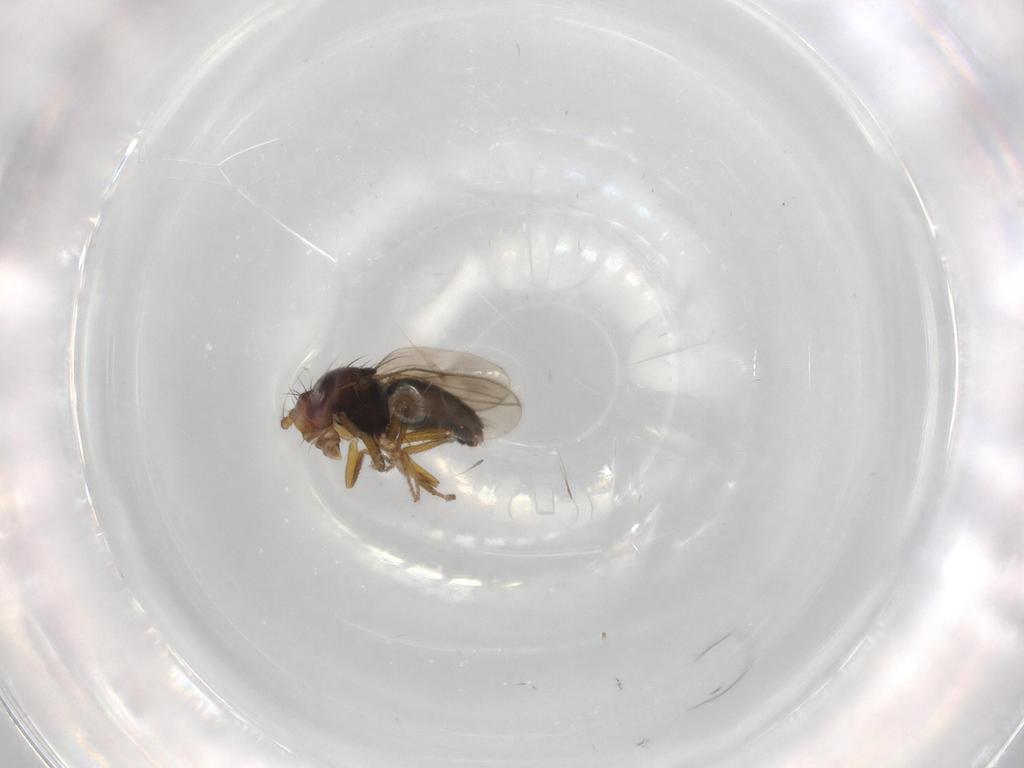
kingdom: Animalia
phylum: Arthropoda
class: Insecta
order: Diptera
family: Sphaeroceridae
